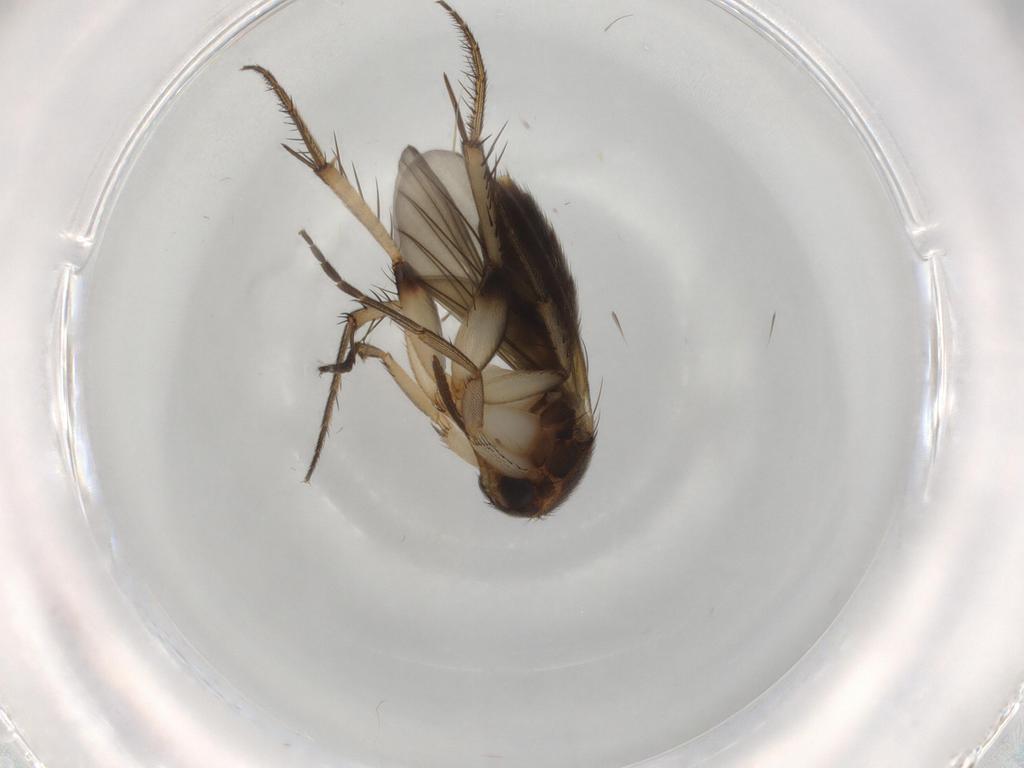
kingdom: Animalia
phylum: Arthropoda
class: Insecta
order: Diptera
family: Mycetophilidae
